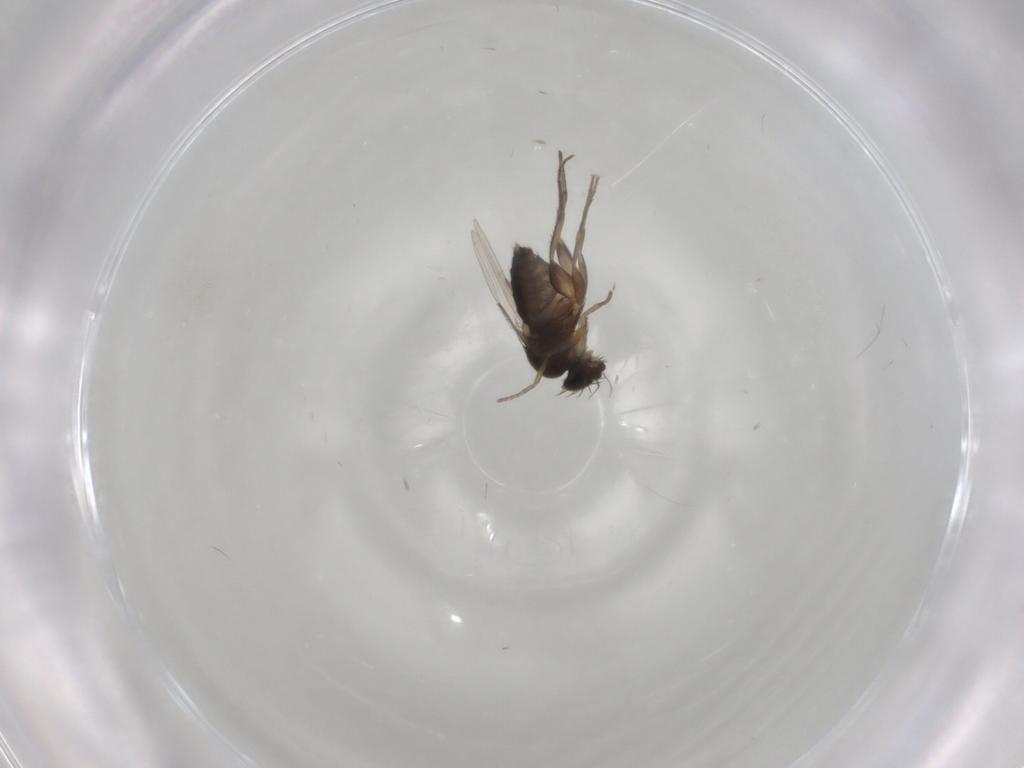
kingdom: Animalia
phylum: Arthropoda
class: Insecta
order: Diptera
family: Phoridae
